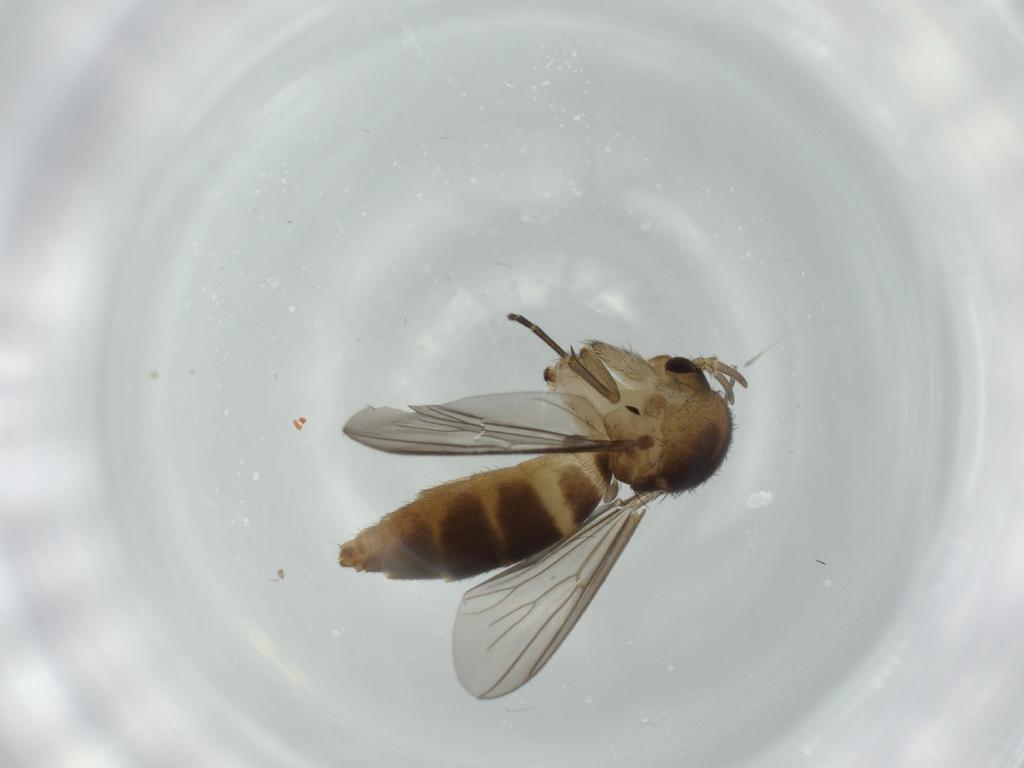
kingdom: Animalia
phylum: Arthropoda
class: Insecta
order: Diptera
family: Mycetophilidae
